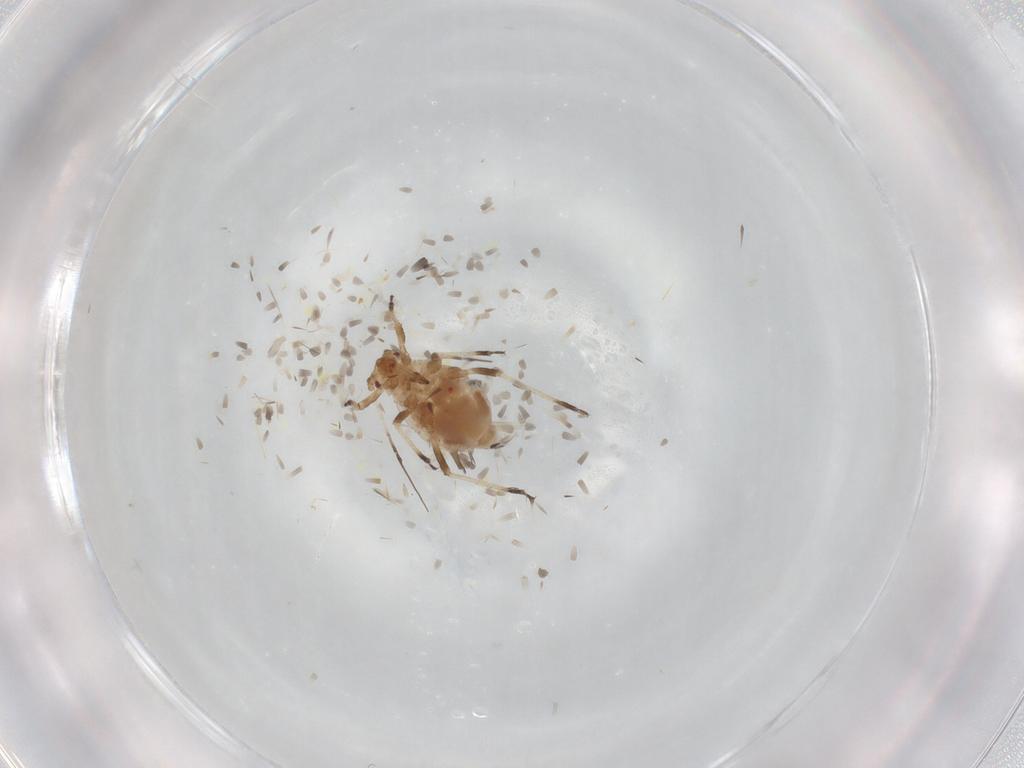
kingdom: Animalia
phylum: Arthropoda
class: Insecta
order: Hemiptera
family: Aphididae
